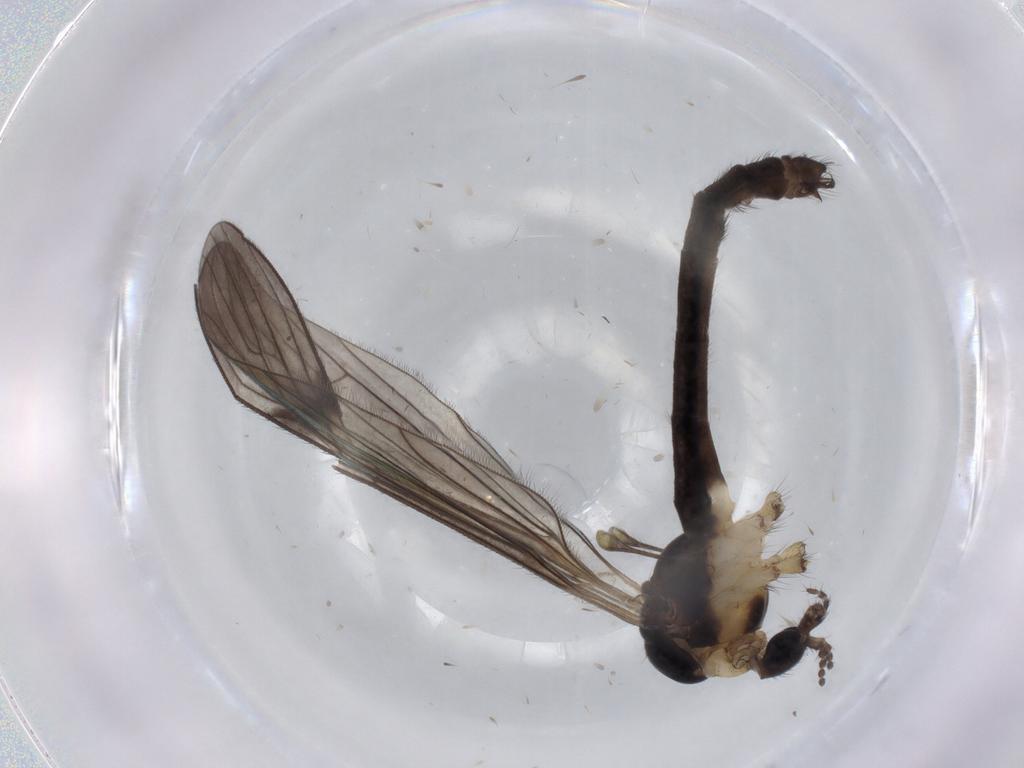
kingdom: Animalia
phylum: Arthropoda
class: Insecta
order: Diptera
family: Limoniidae
